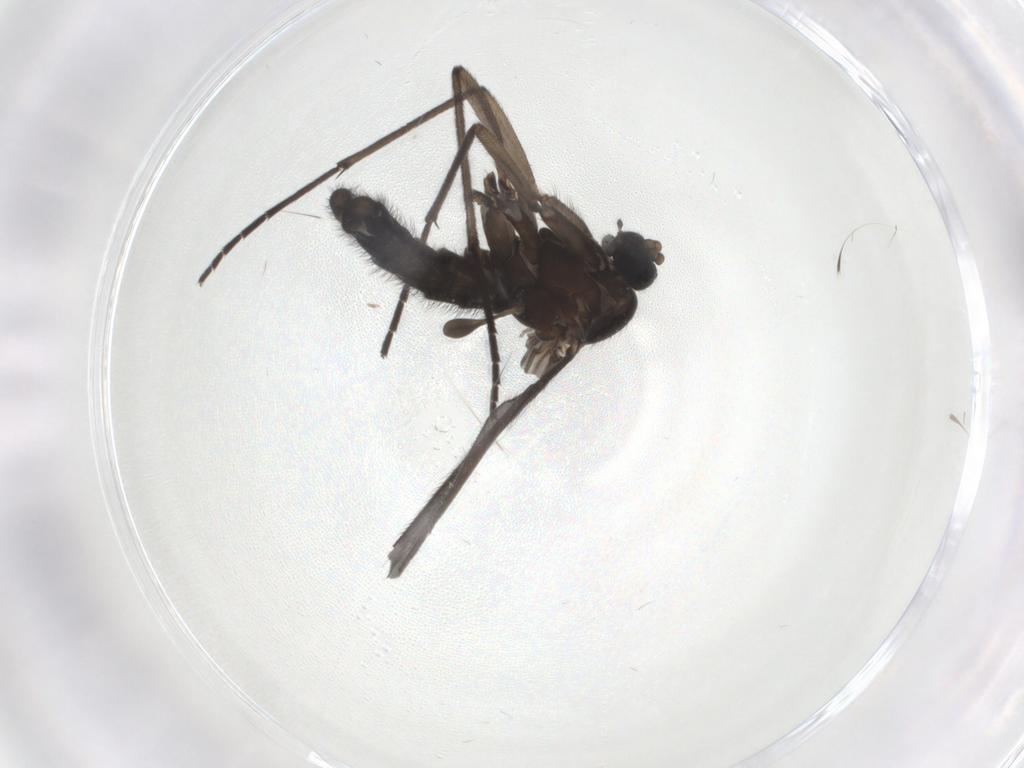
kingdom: Animalia
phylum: Arthropoda
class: Insecta
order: Diptera
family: Sciaridae
